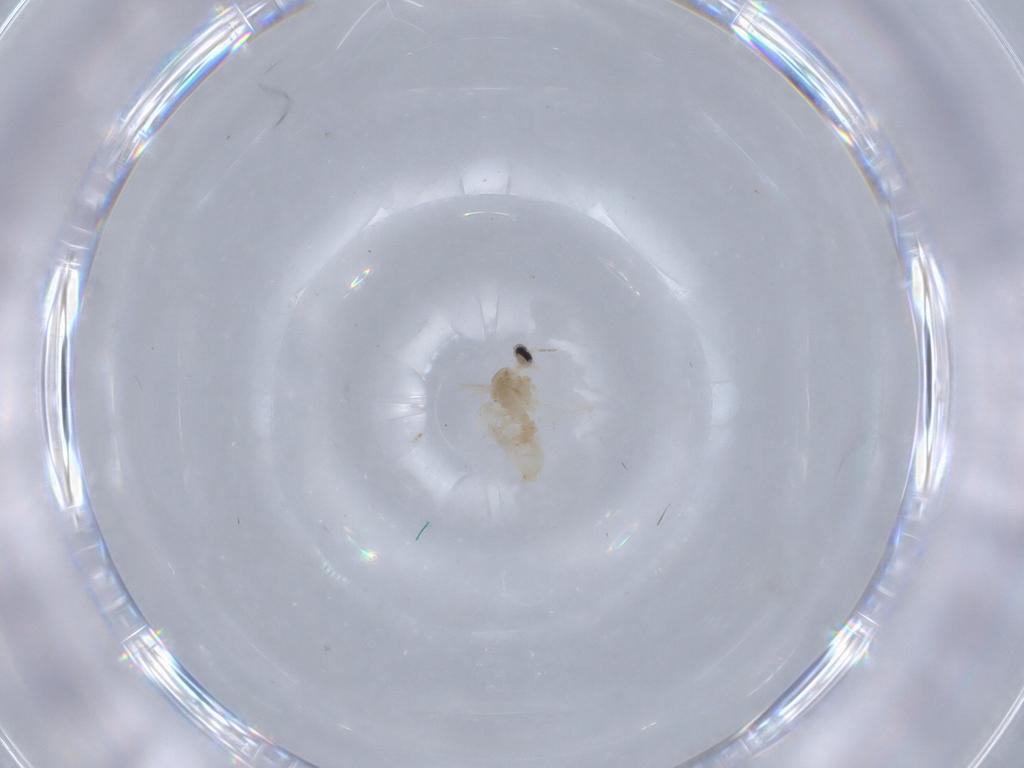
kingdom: Animalia
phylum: Arthropoda
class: Insecta
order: Diptera
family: Cecidomyiidae
